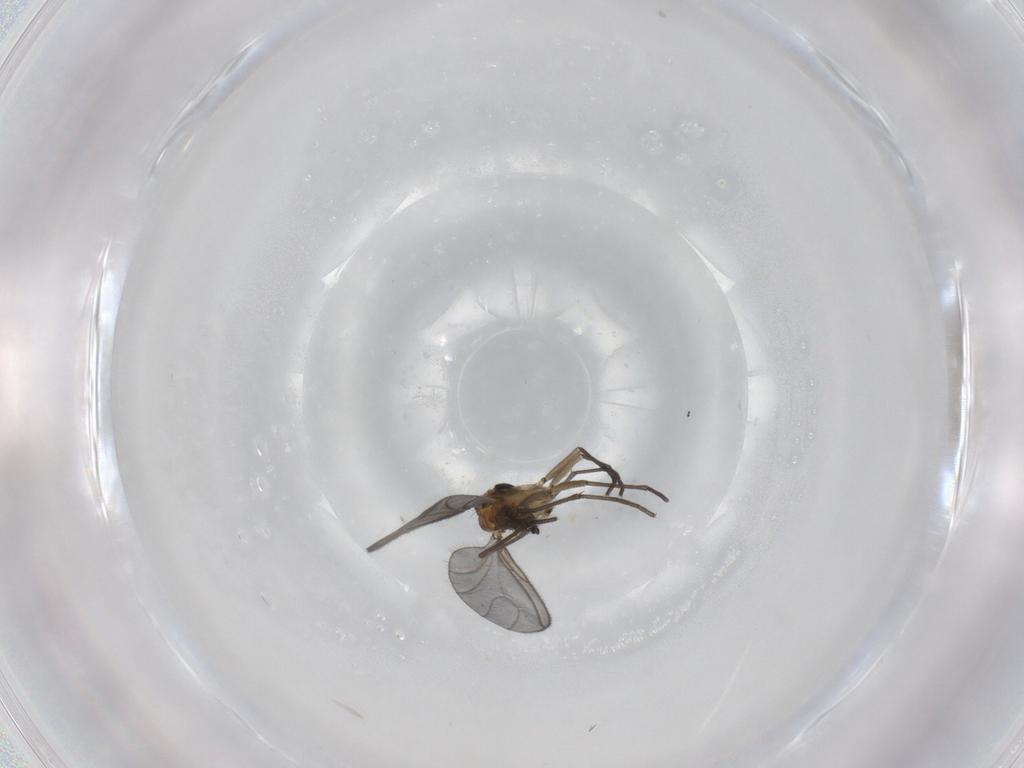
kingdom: Animalia
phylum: Arthropoda
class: Insecta
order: Diptera
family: Sciaridae
